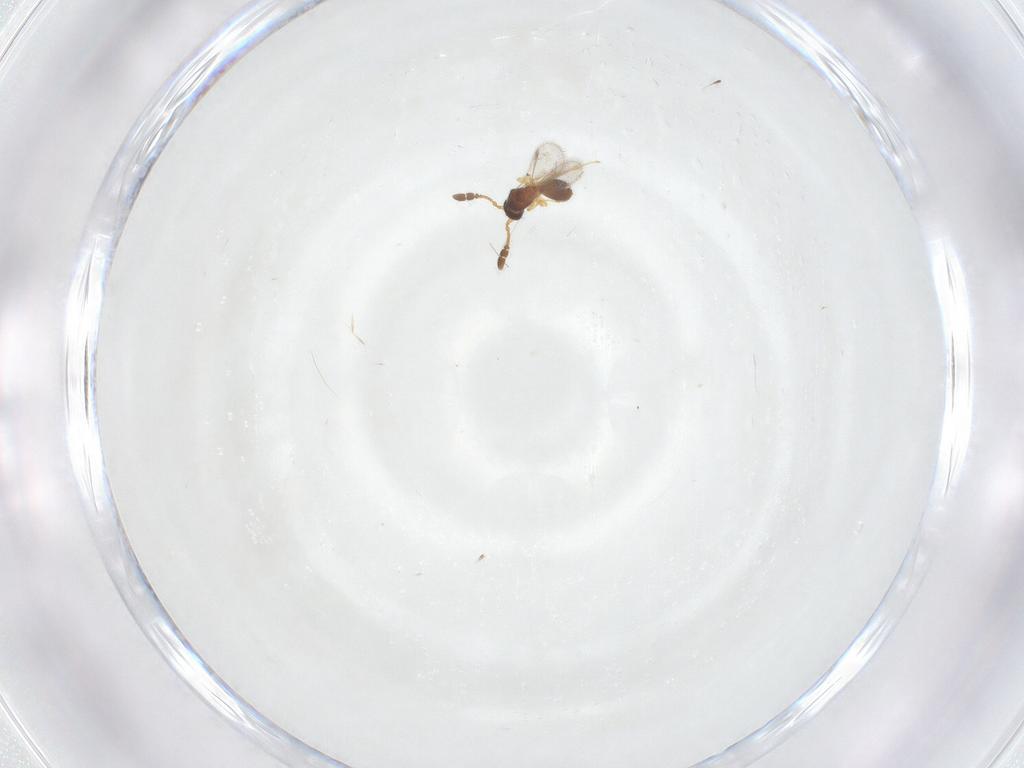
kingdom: Animalia
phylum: Arthropoda
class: Insecta
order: Hymenoptera
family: Diapriidae
